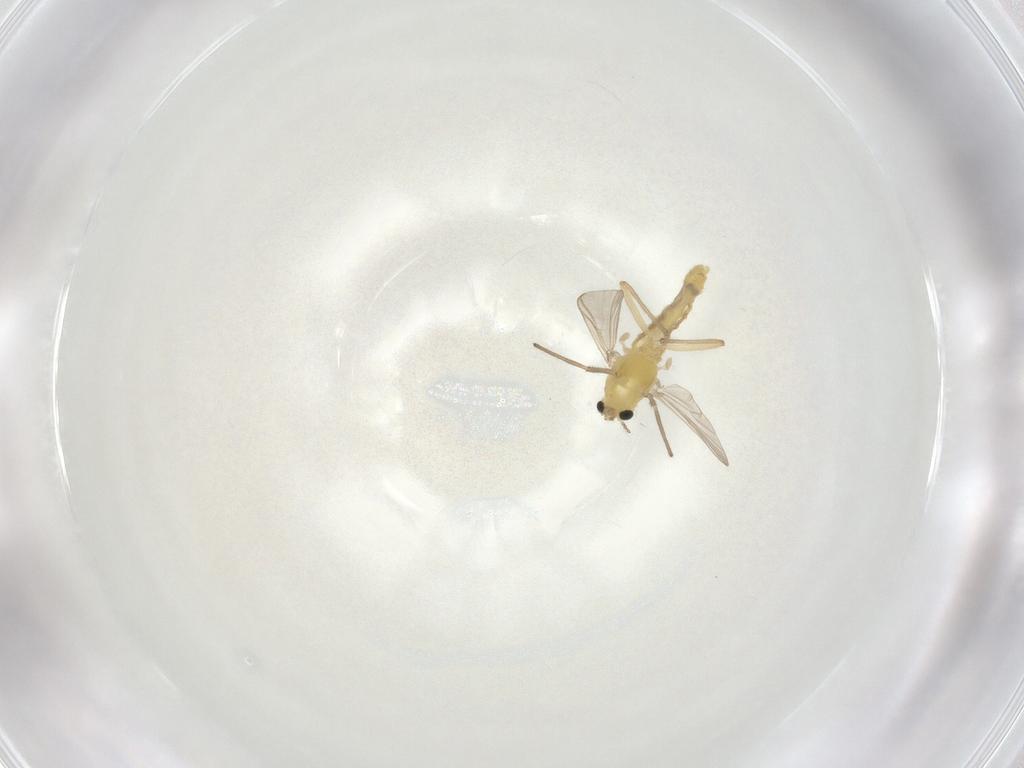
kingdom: Animalia
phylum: Arthropoda
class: Insecta
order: Diptera
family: Chironomidae
